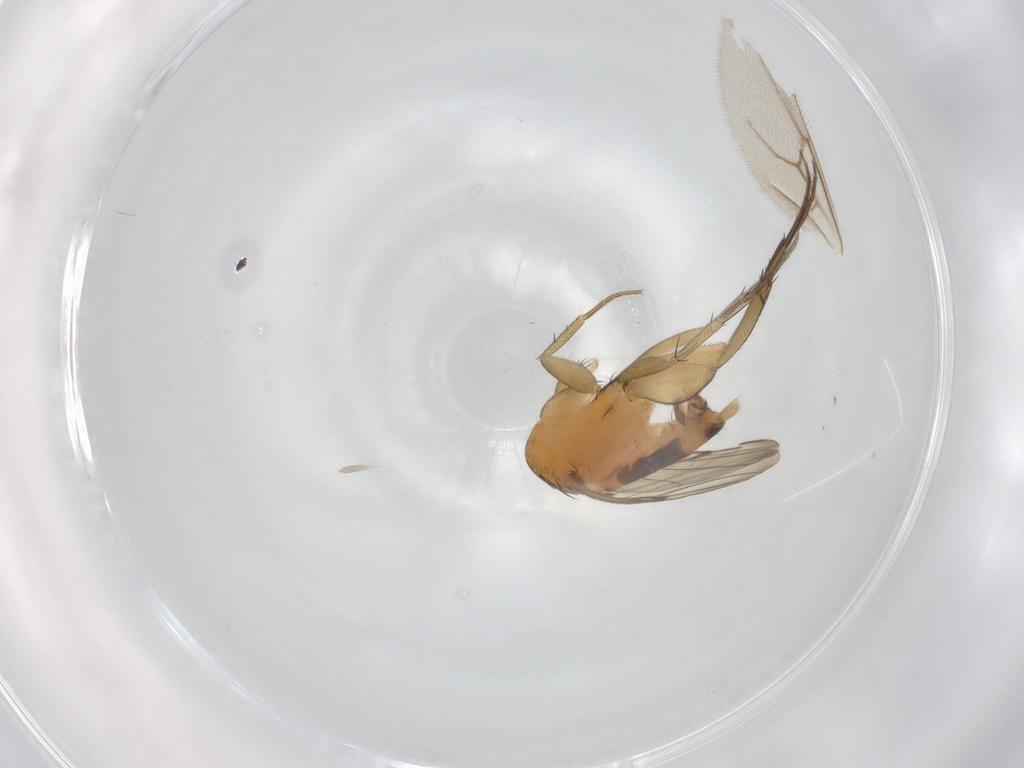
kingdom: Animalia
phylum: Arthropoda
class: Insecta
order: Diptera
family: Phoridae
